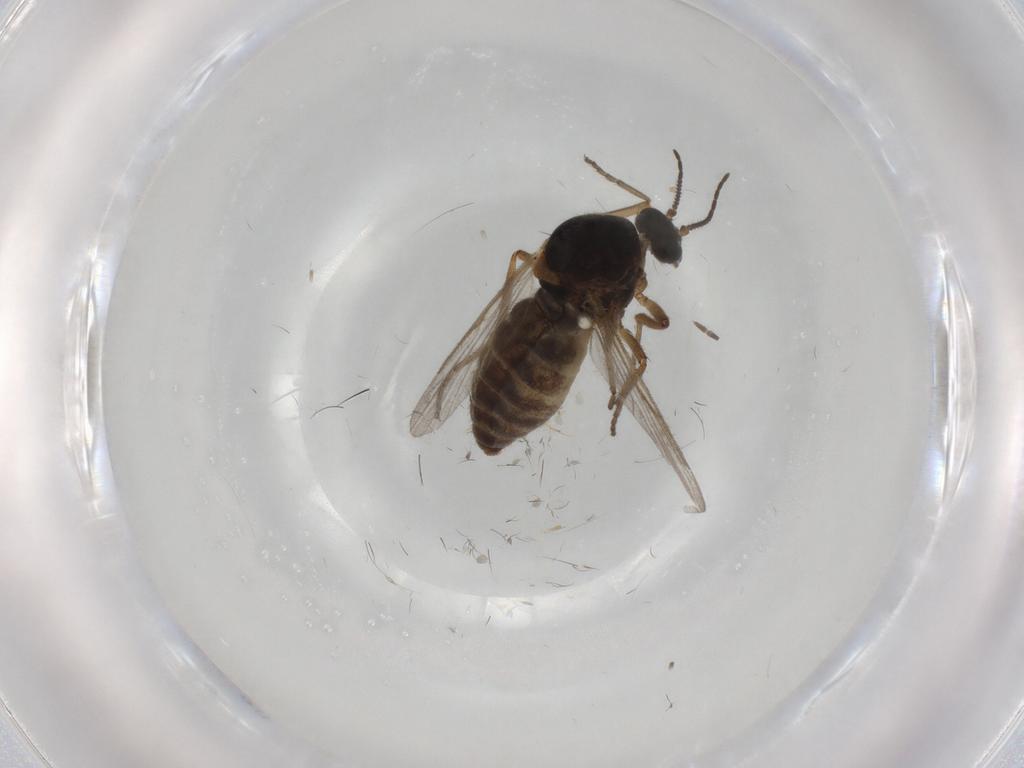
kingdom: Animalia
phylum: Arthropoda
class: Insecta
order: Diptera
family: Ceratopogonidae
